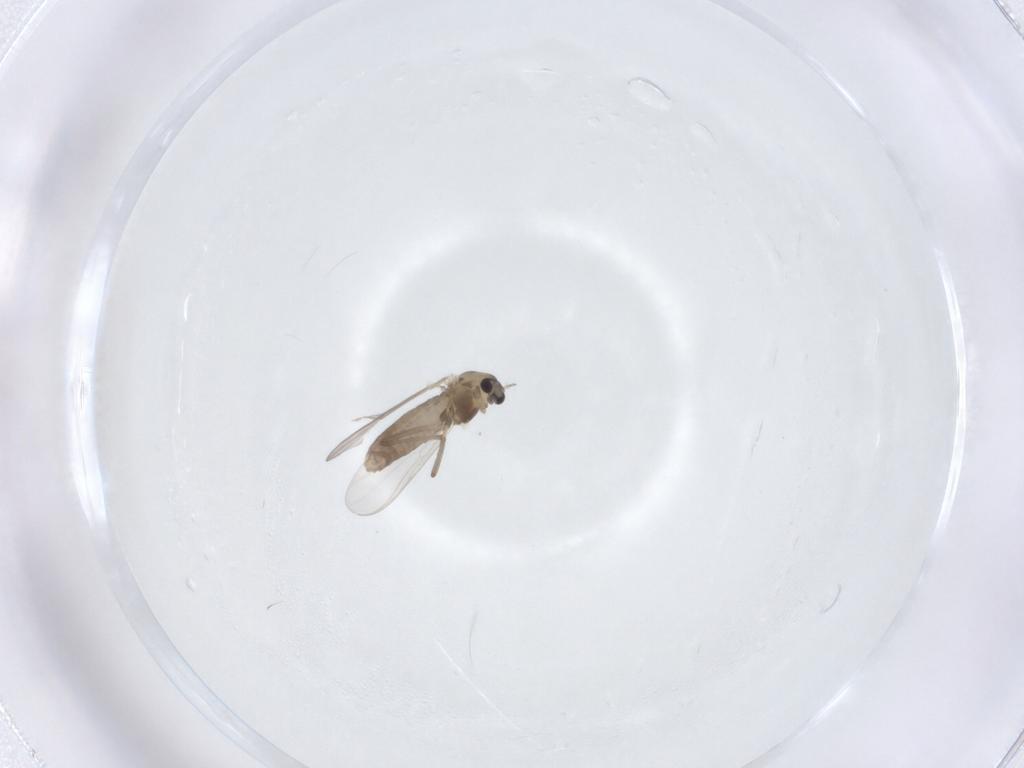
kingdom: Animalia
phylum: Arthropoda
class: Insecta
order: Diptera
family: Chironomidae
